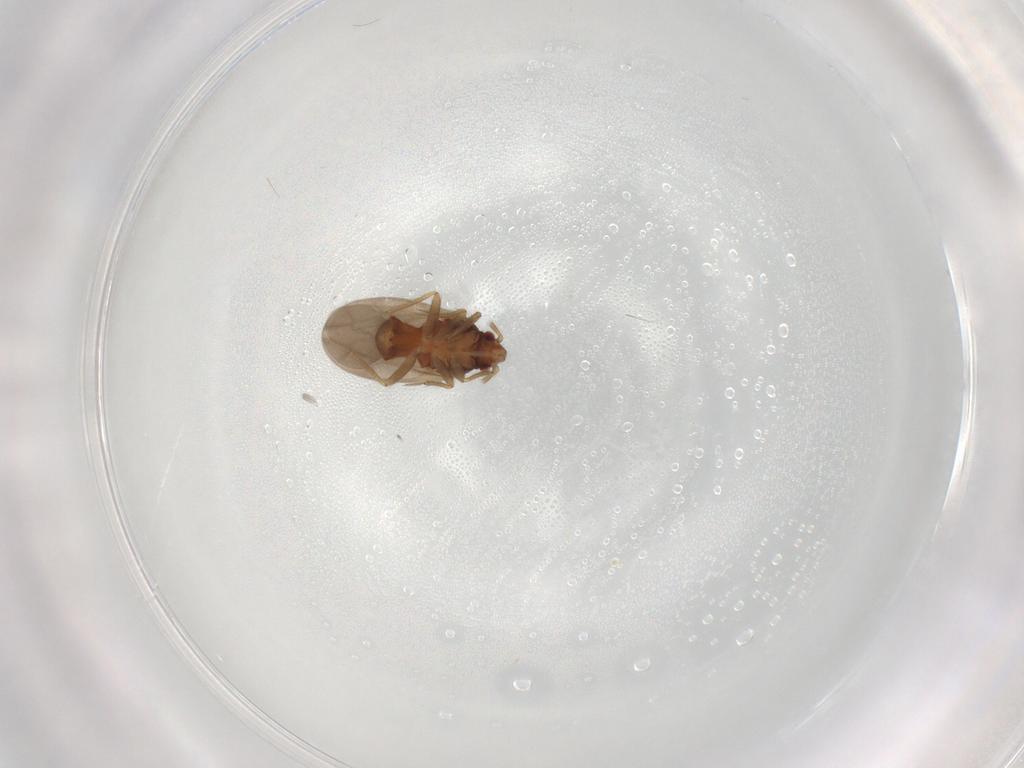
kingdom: Animalia
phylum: Arthropoda
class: Insecta
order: Hemiptera
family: Ceratocombidae
